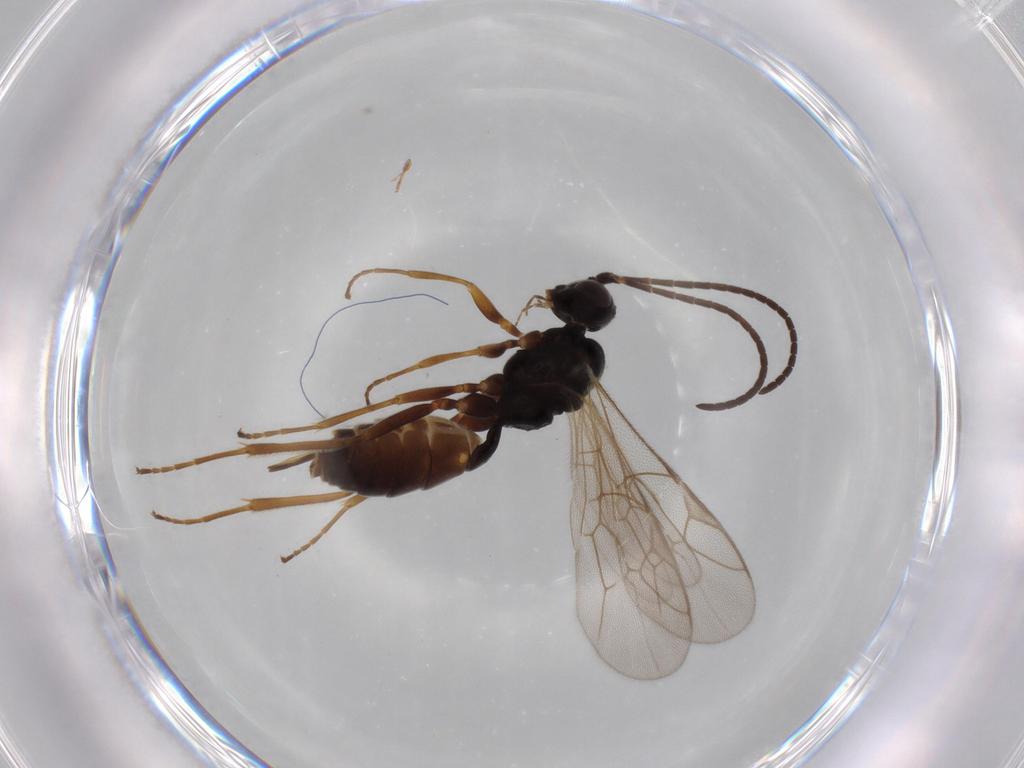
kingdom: Animalia
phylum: Arthropoda
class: Insecta
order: Hymenoptera
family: Ichneumonidae
